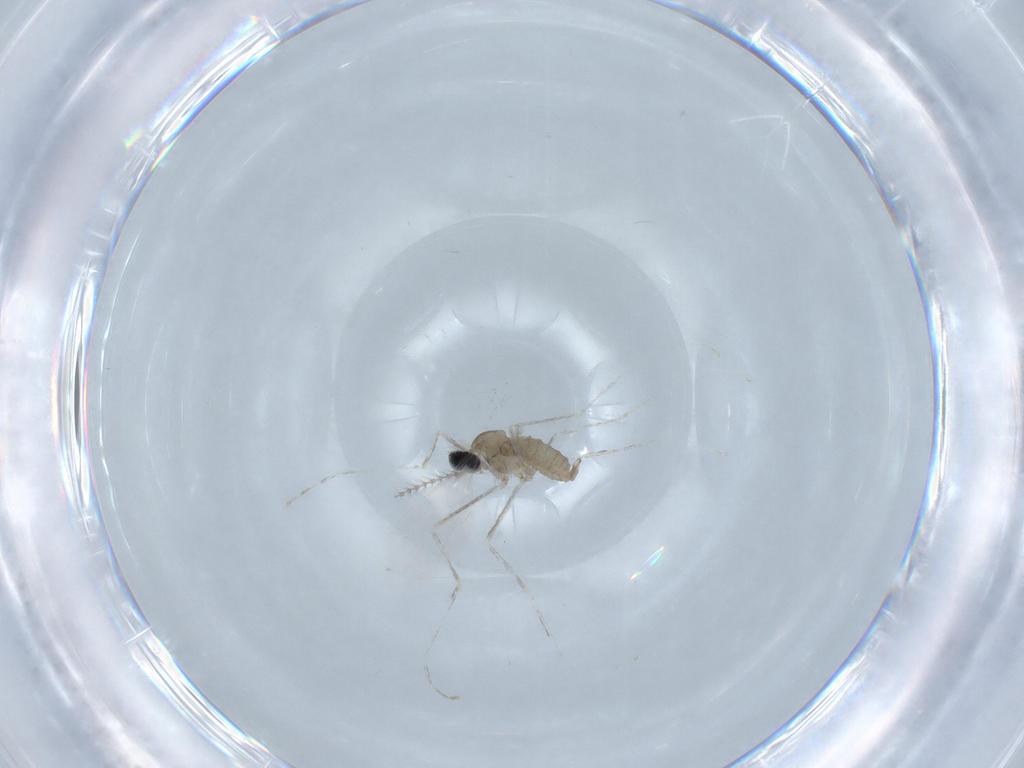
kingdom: Animalia
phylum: Arthropoda
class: Insecta
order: Diptera
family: Cecidomyiidae
